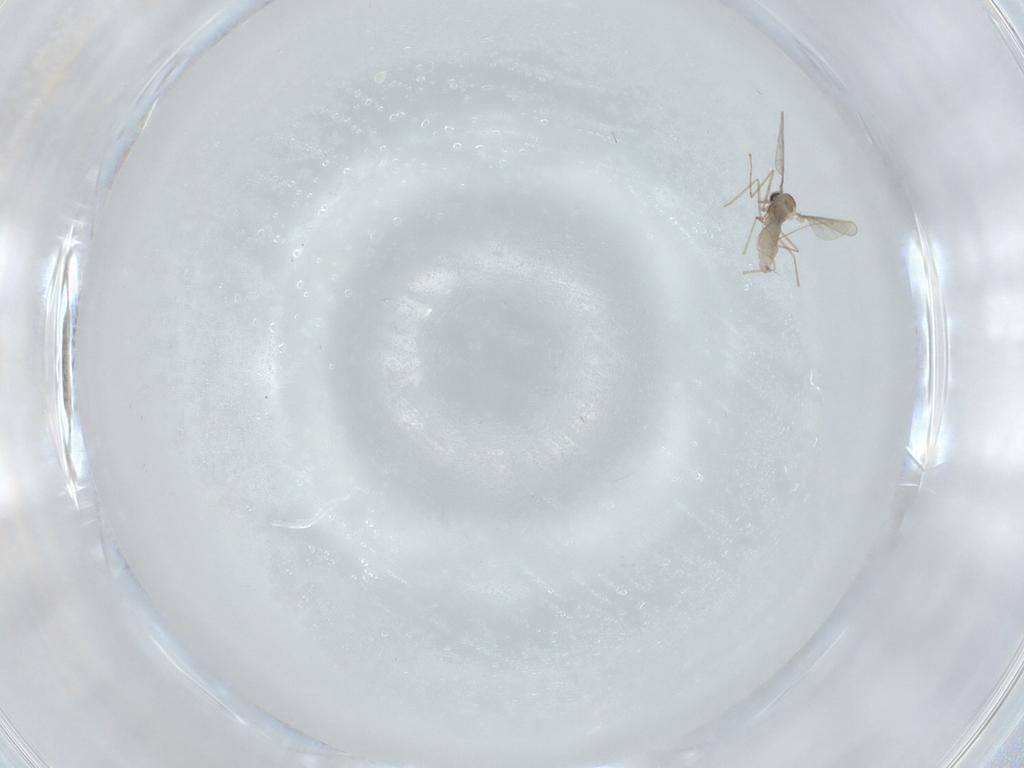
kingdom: Animalia
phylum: Arthropoda
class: Insecta
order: Diptera
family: Cecidomyiidae
